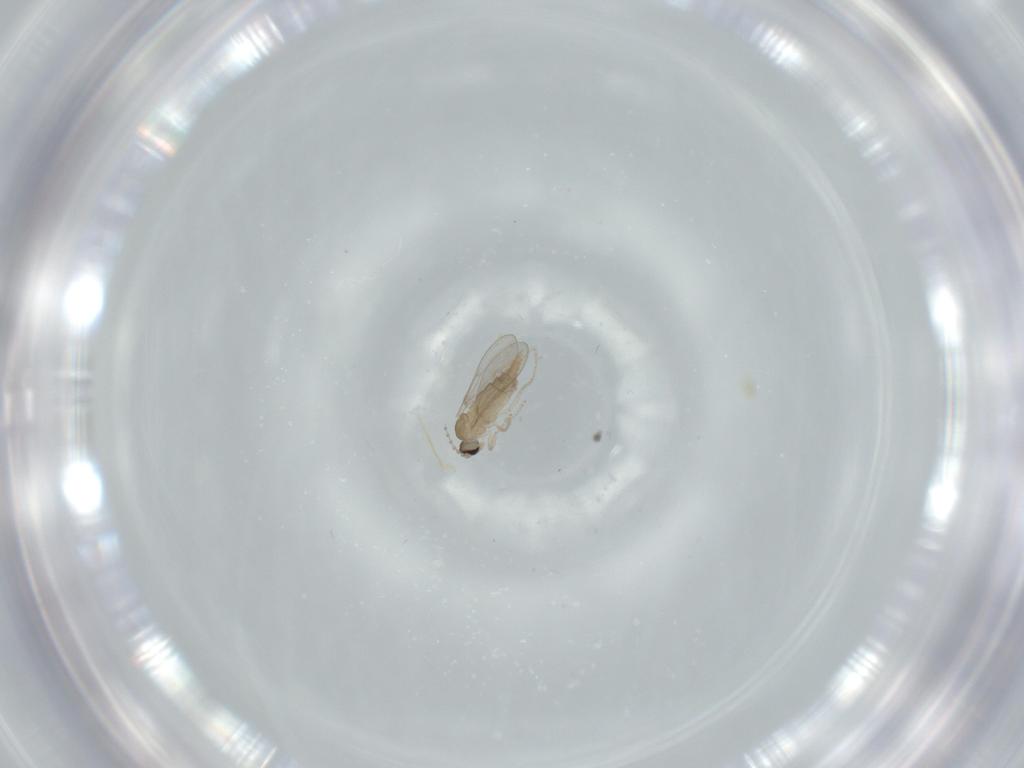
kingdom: Animalia
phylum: Arthropoda
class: Insecta
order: Diptera
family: Cecidomyiidae
